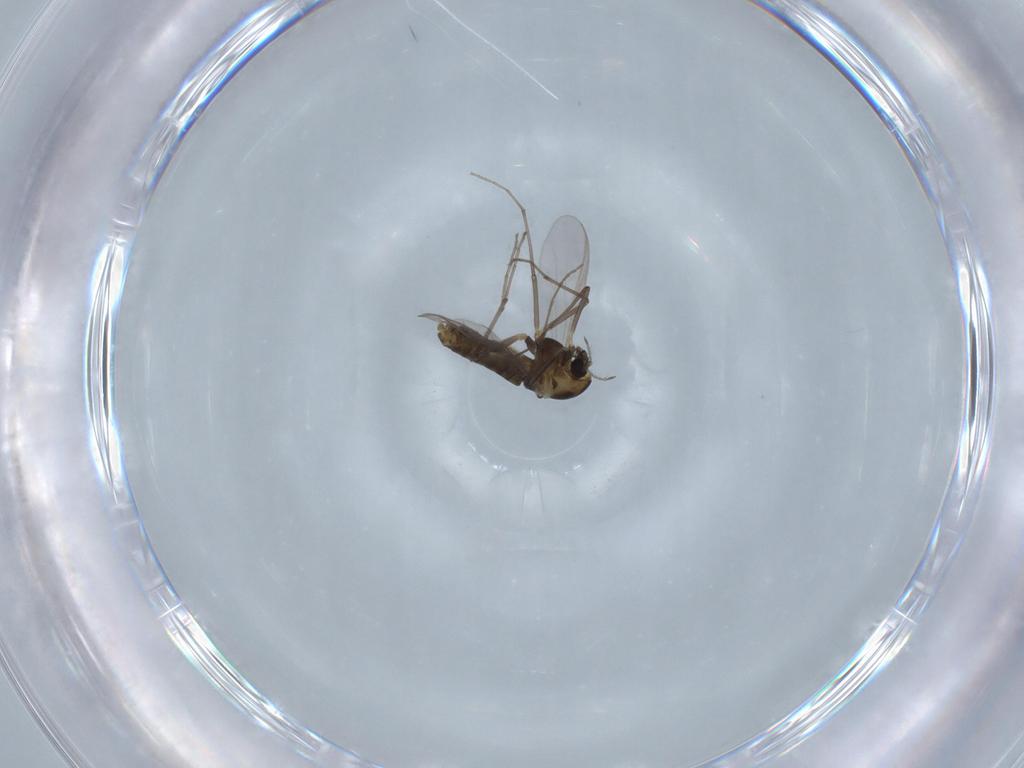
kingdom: Animalia
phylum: Arthropoda
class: Insecta
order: Diptera
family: Chironomidae
